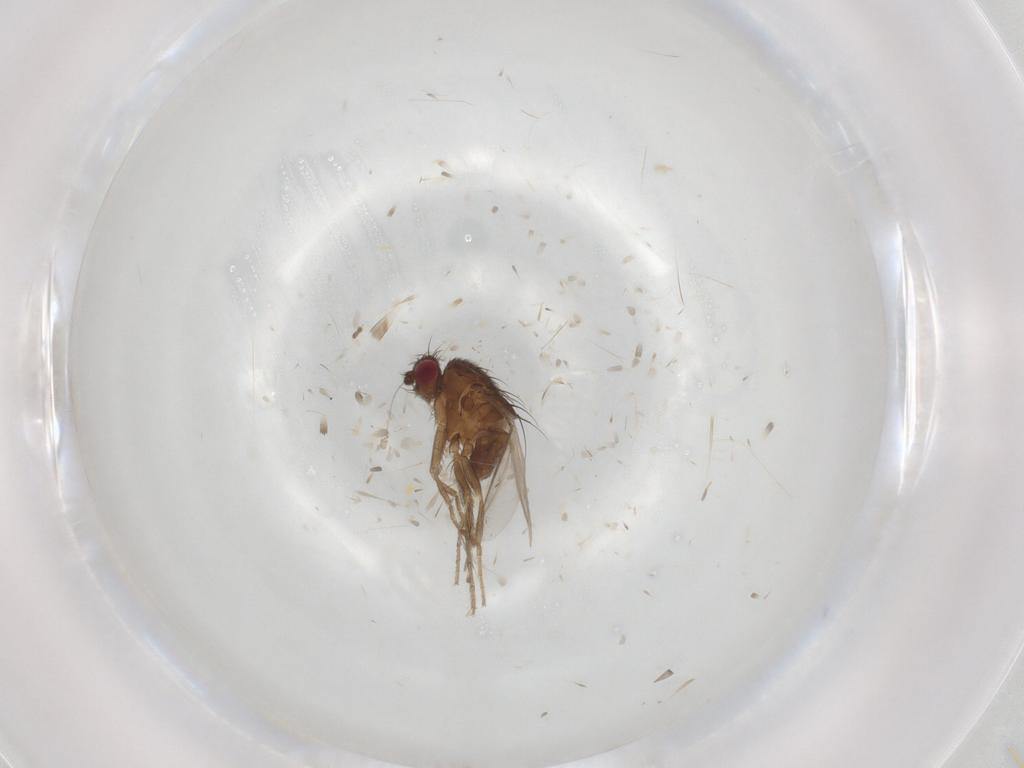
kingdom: Animalia
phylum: Arthropoda
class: Insecta
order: Diptera
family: Sphaeroceridae
